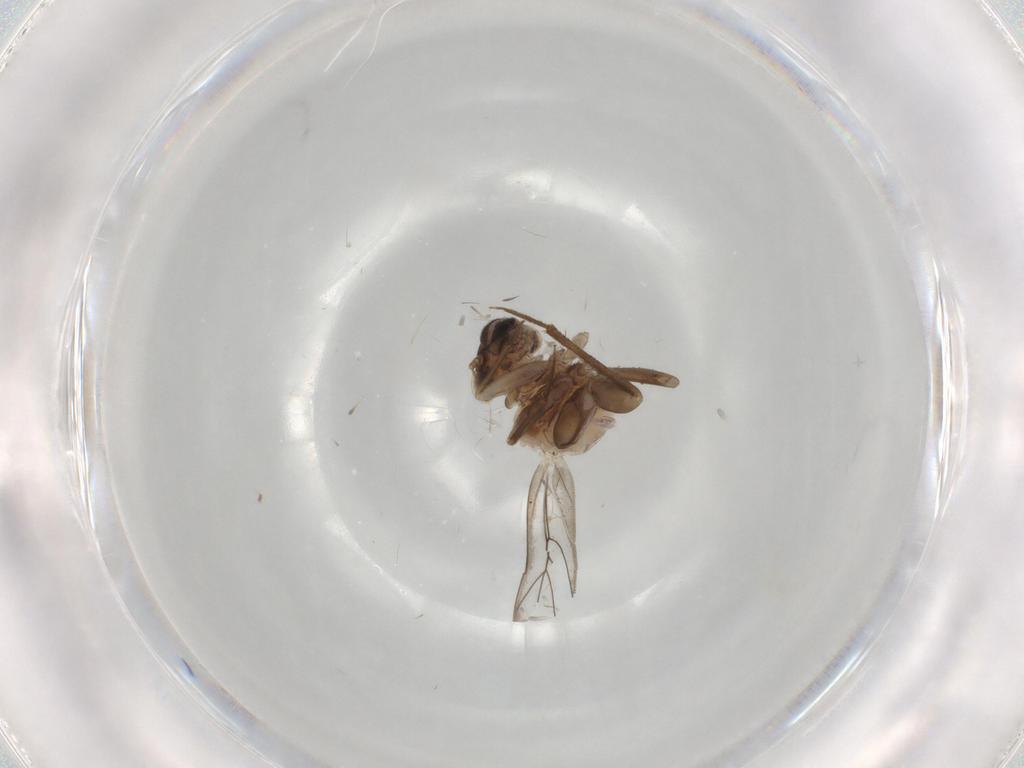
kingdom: Animalia
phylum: Arthropoda
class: Insecta
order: Psocodea
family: Lepidopsocidae
